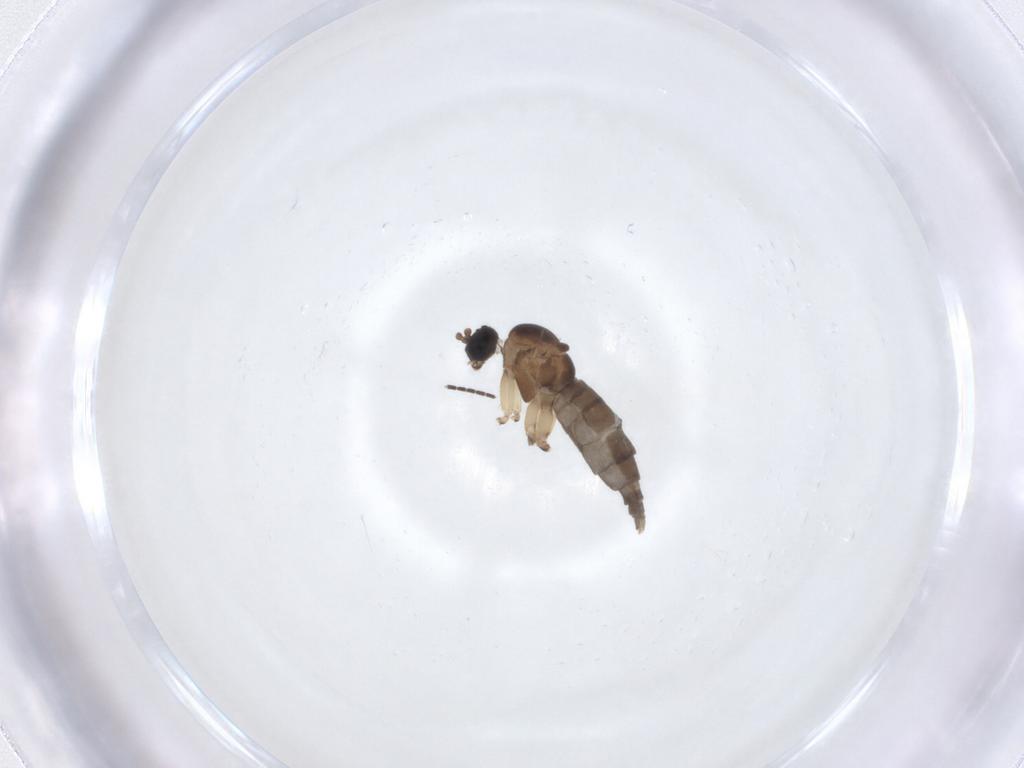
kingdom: Animalia
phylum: Arthropoda
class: Insecta
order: Diptera
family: Sciaridae
